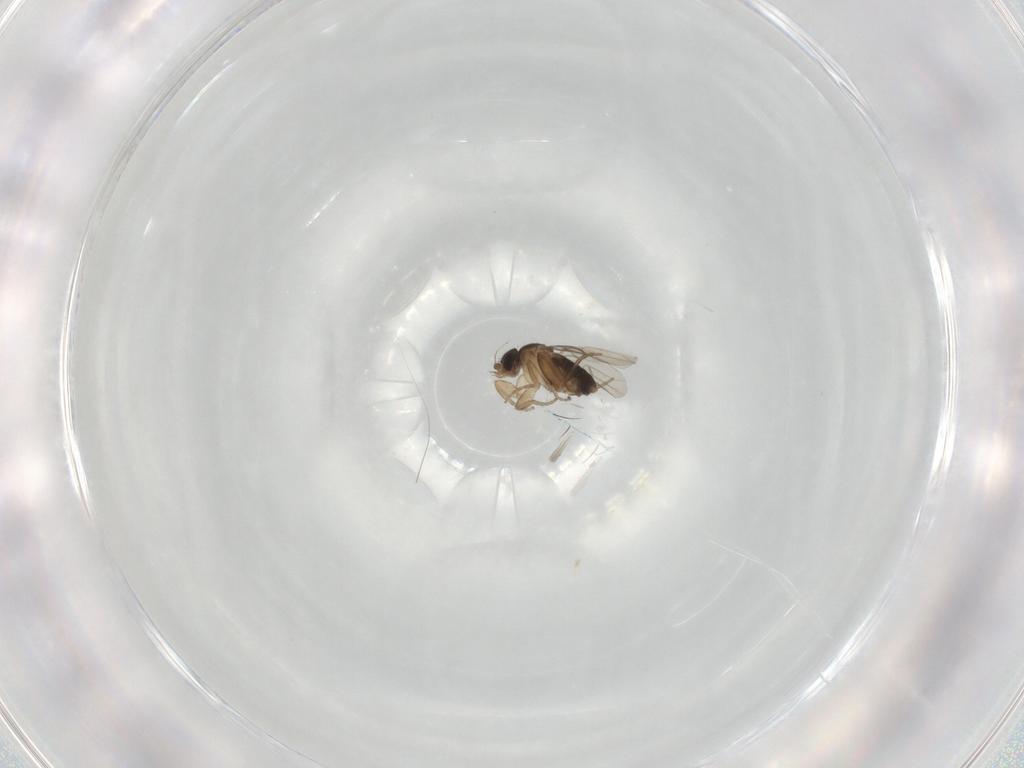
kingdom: Animalia
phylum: Arthropoda
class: Insecta
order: Diptera
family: Phoridae
